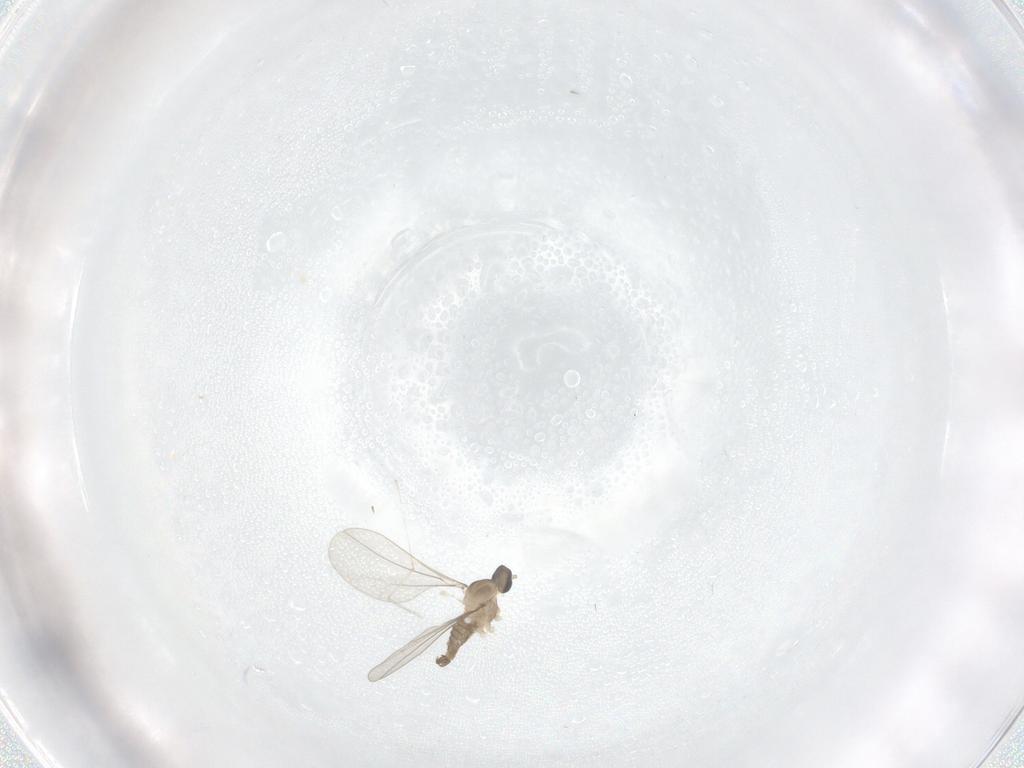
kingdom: Animalia
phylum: Arthropoda
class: Insecta
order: Diptera
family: Cecidomyiidae
